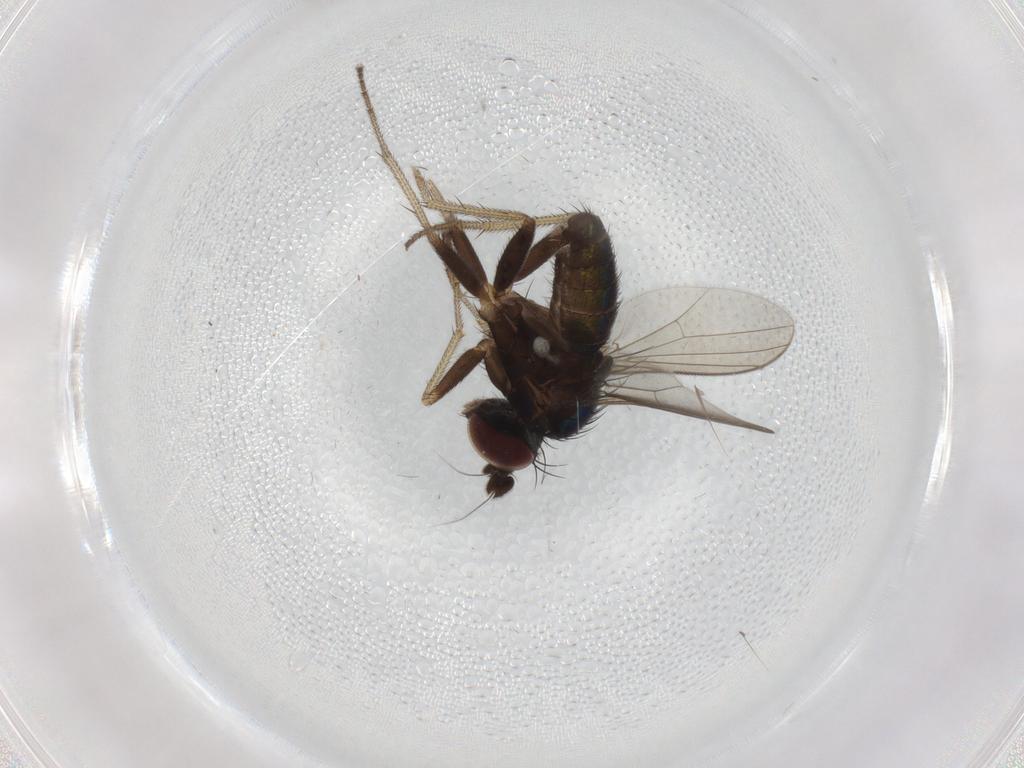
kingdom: Animalia
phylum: Arthropoda
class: Insecta
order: Diptera
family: Dolichopodidae
